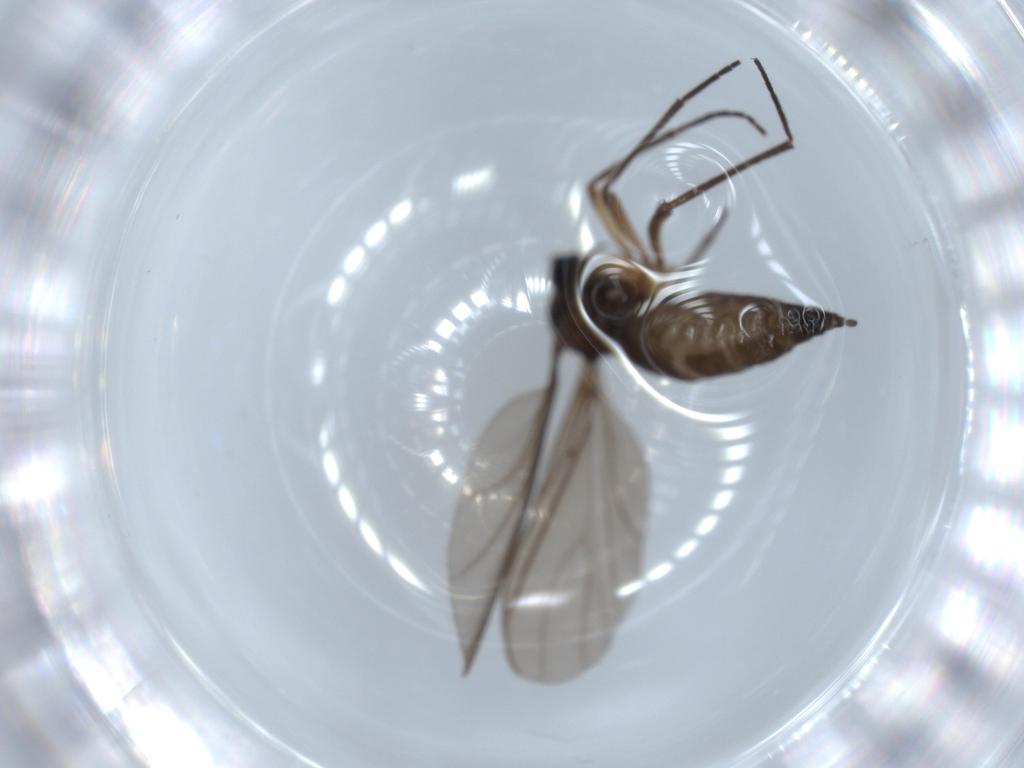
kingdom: Animalia
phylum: Arthropoda
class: Insecta
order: Diptera
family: Sciaridae
